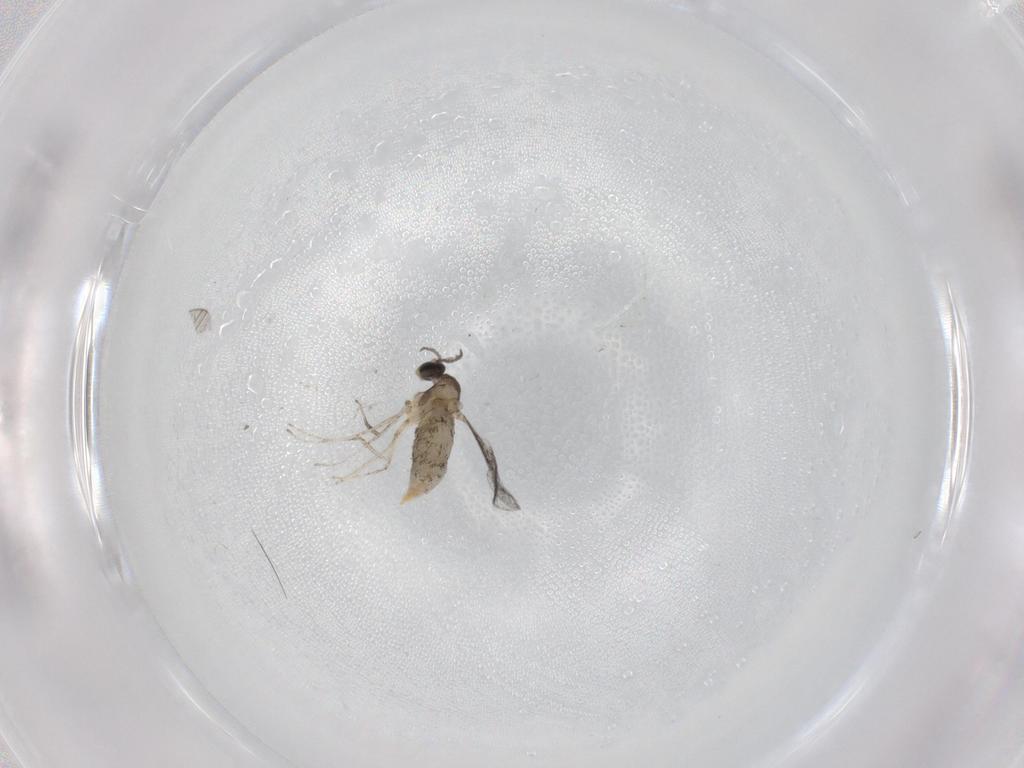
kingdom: Animalia
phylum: Arthropoda
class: Insecta
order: Diptera
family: Cecidomyiidae
